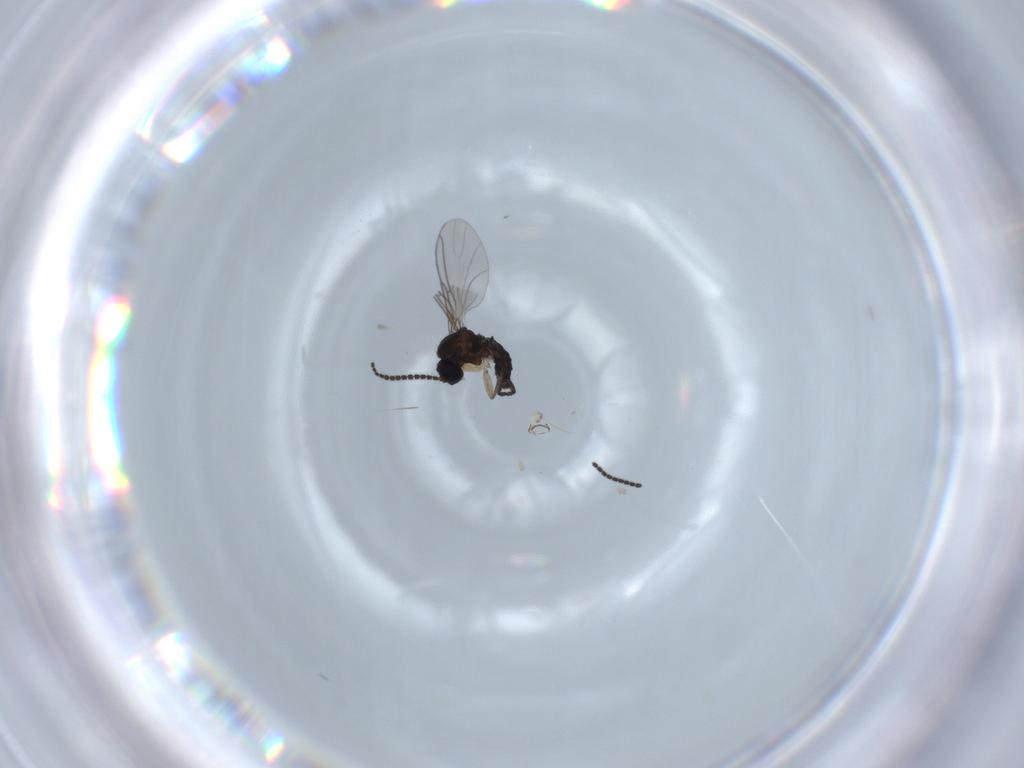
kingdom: Animalia
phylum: Arthropoda
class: Insecta
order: Diptera
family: Sciaridae
